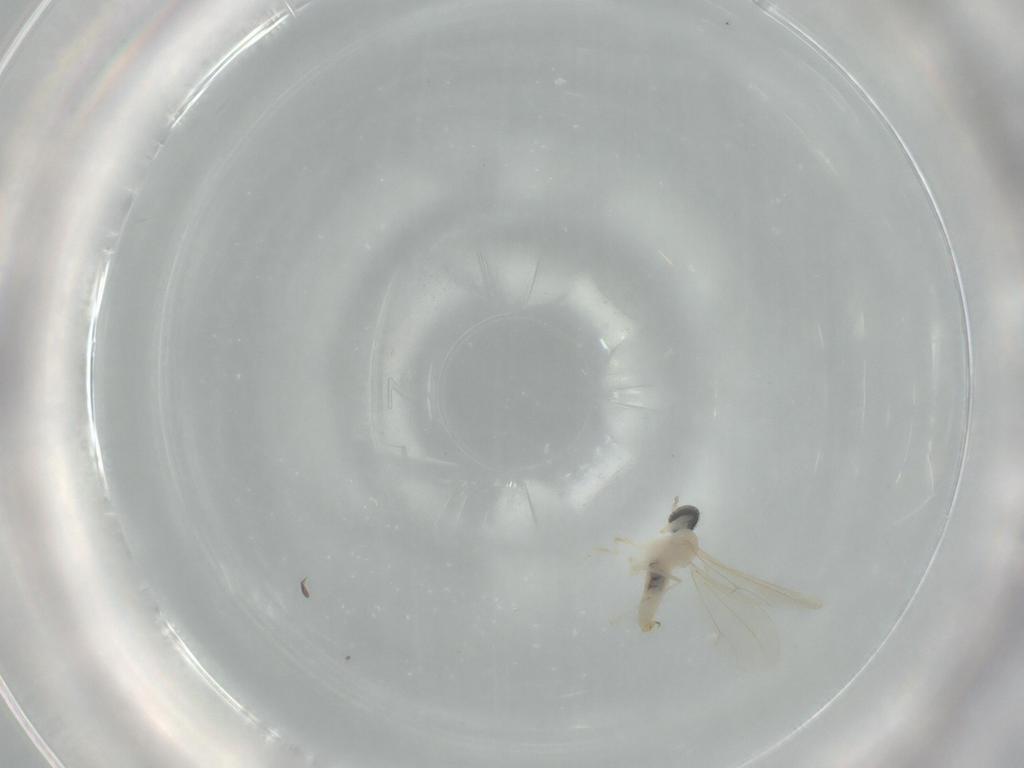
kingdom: Animalia
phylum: Arthropoda
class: Insecta
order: Diptera
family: Cecidomyiidae
